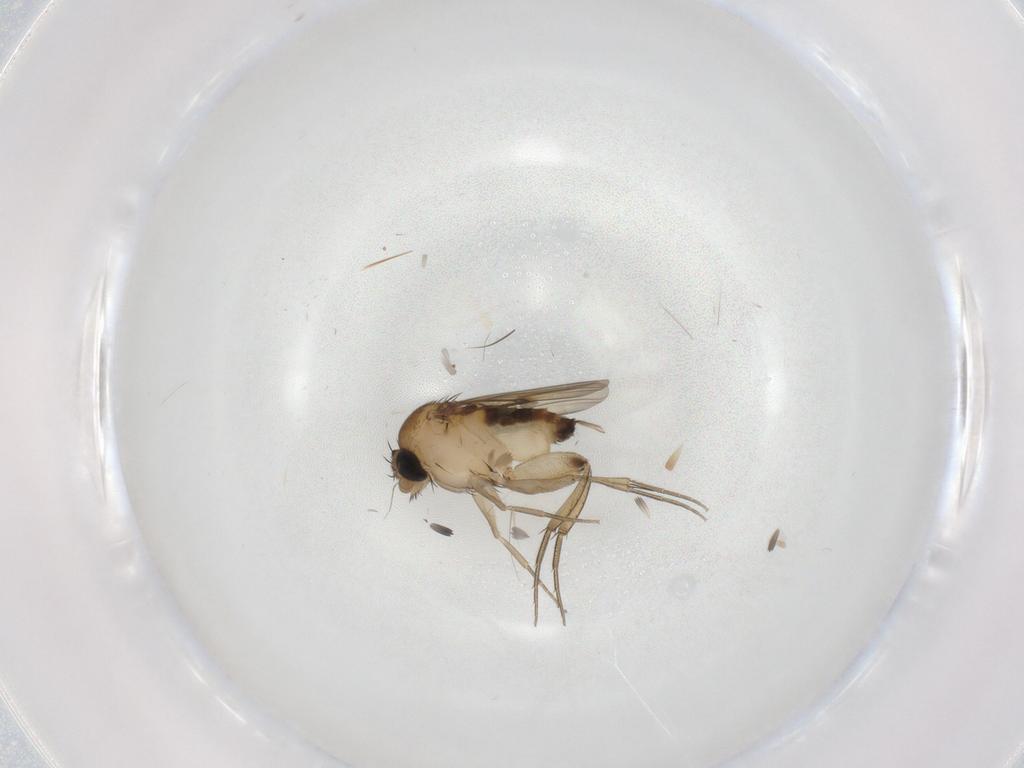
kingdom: Animalia
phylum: Arthropoda
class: Insecta
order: Diptera
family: Phoridae
